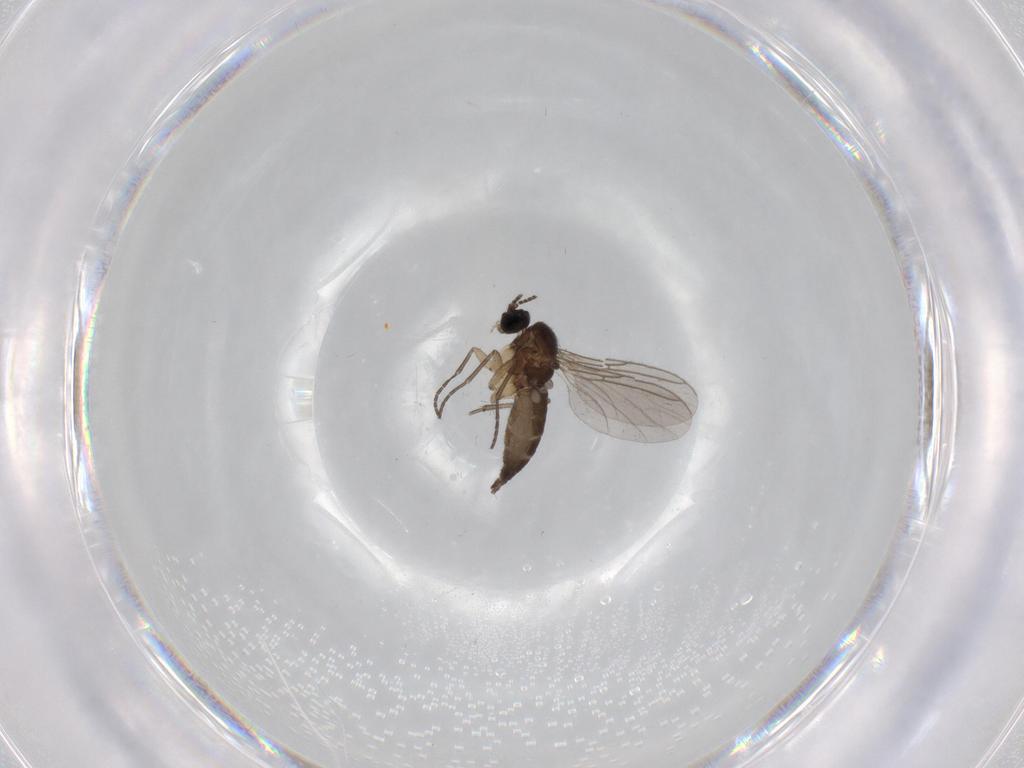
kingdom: Animalia
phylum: Arthropoda
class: Insecta
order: Diptera
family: Sciaridae
